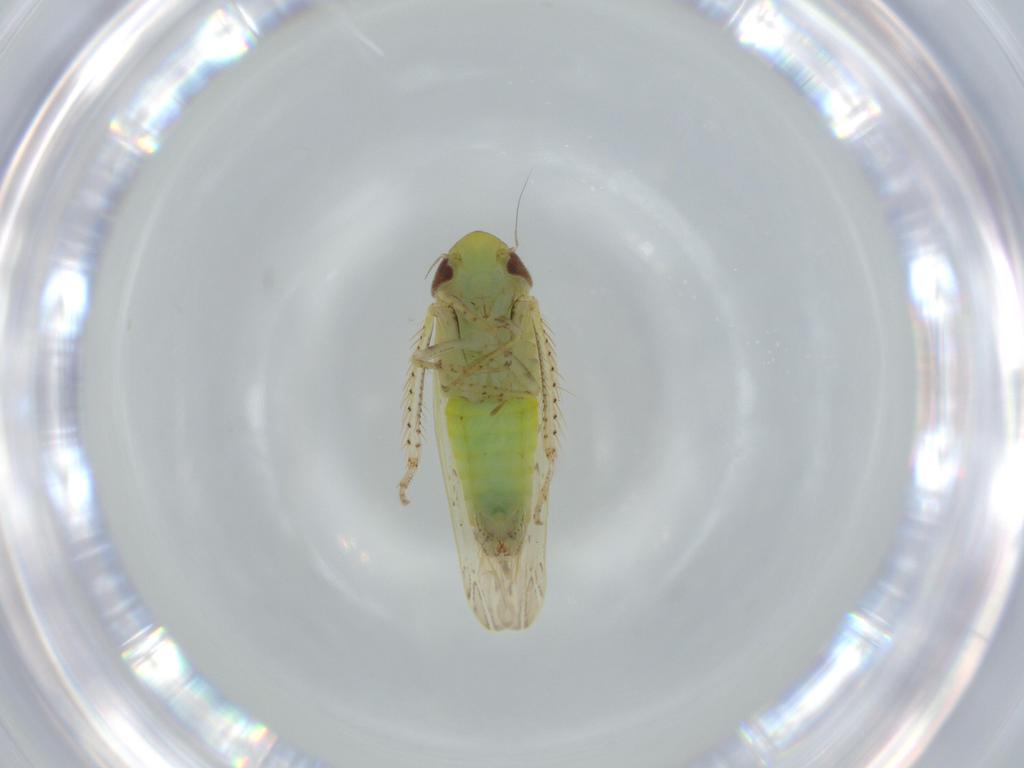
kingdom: Animalia
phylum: Arthropoda
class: Insecta
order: Hemiptera
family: Cicadellidae
